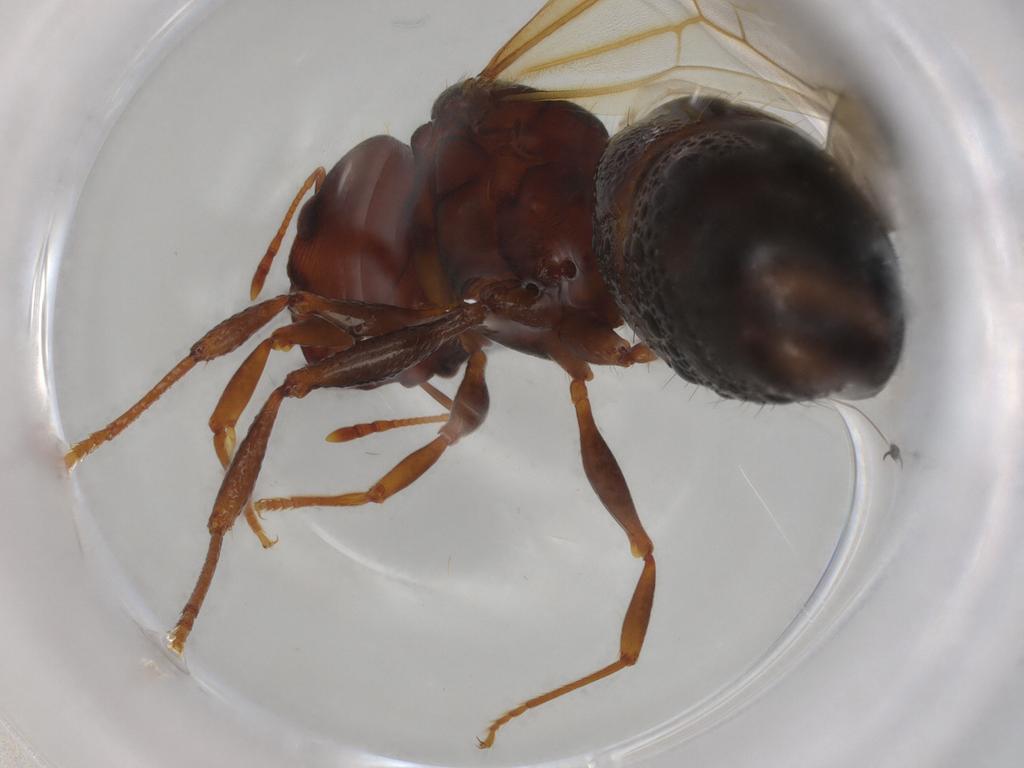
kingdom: Animalia
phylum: Arthropoda
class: Insecta
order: Hymenoptera
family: Formicidae
